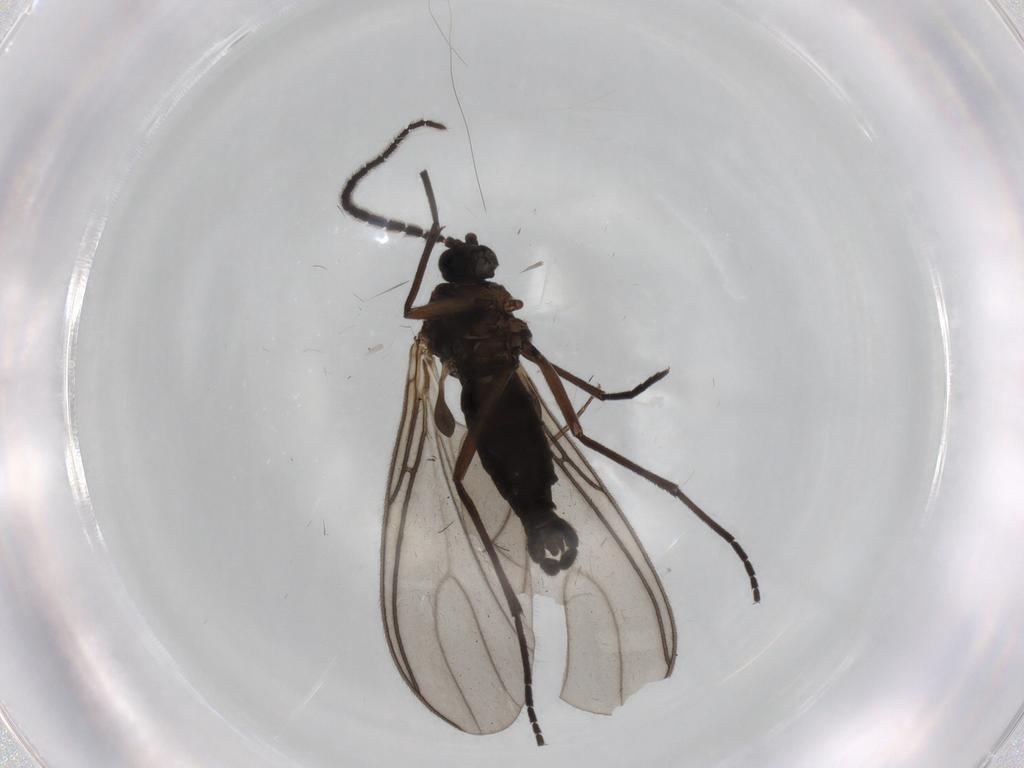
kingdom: Animalia
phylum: Arthropoda
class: Insecta
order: Diptera
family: Sciaridae
